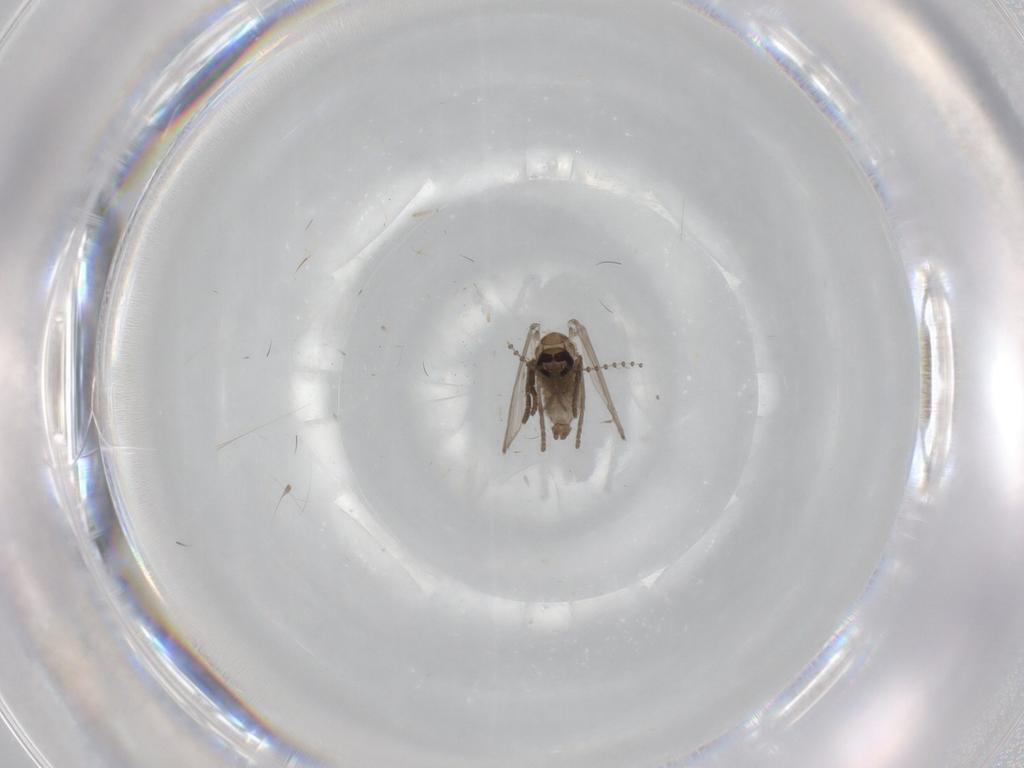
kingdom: Animalia
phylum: Arthropoda
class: Insecta
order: Diptera
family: Psychodidae
